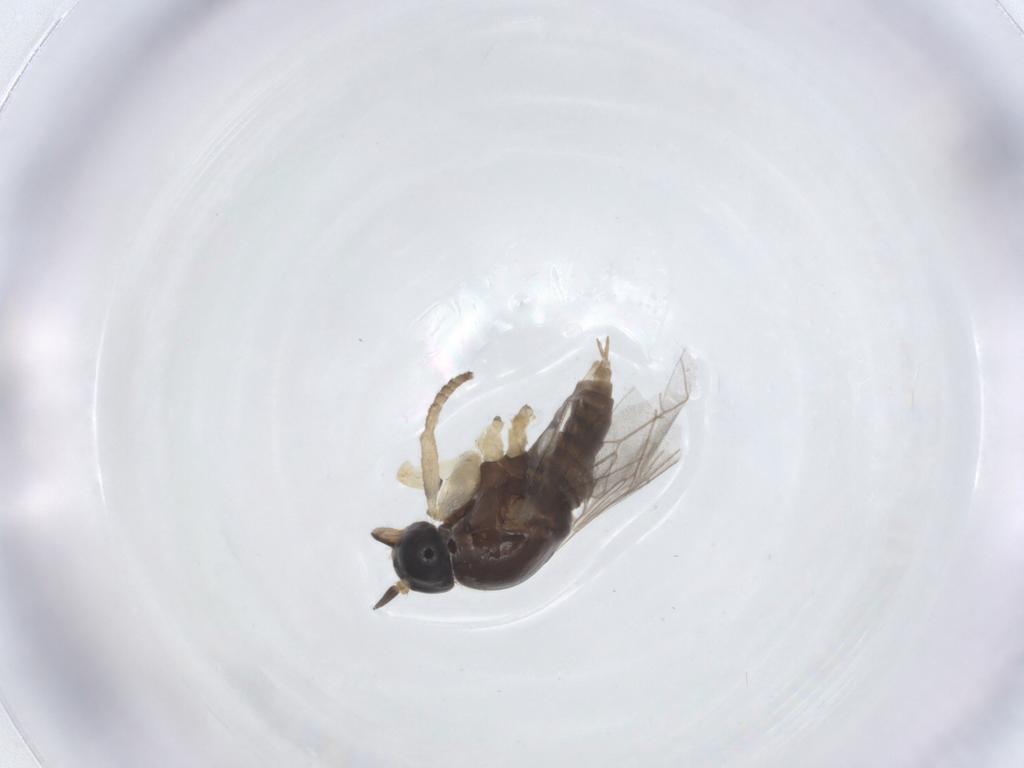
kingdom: Animalia
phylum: Arthropoda
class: Insecta
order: Diptera
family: Empididae
